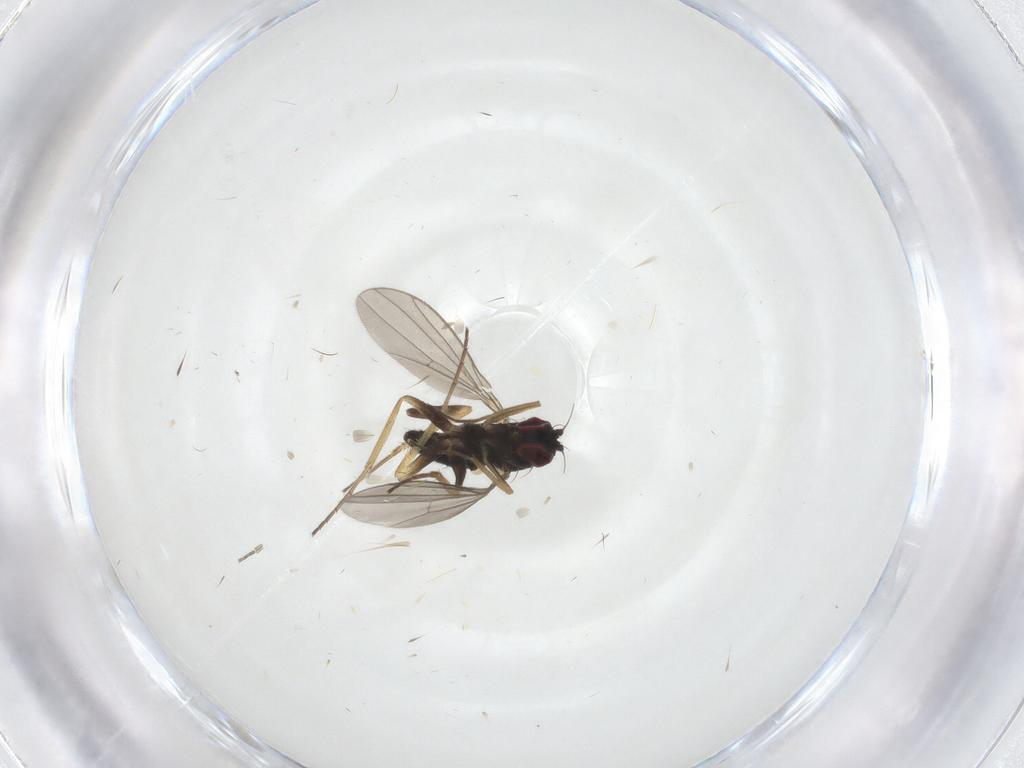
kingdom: Animalia
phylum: Arthropoda
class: Insecta
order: Diptera
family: Dolichopodidae
